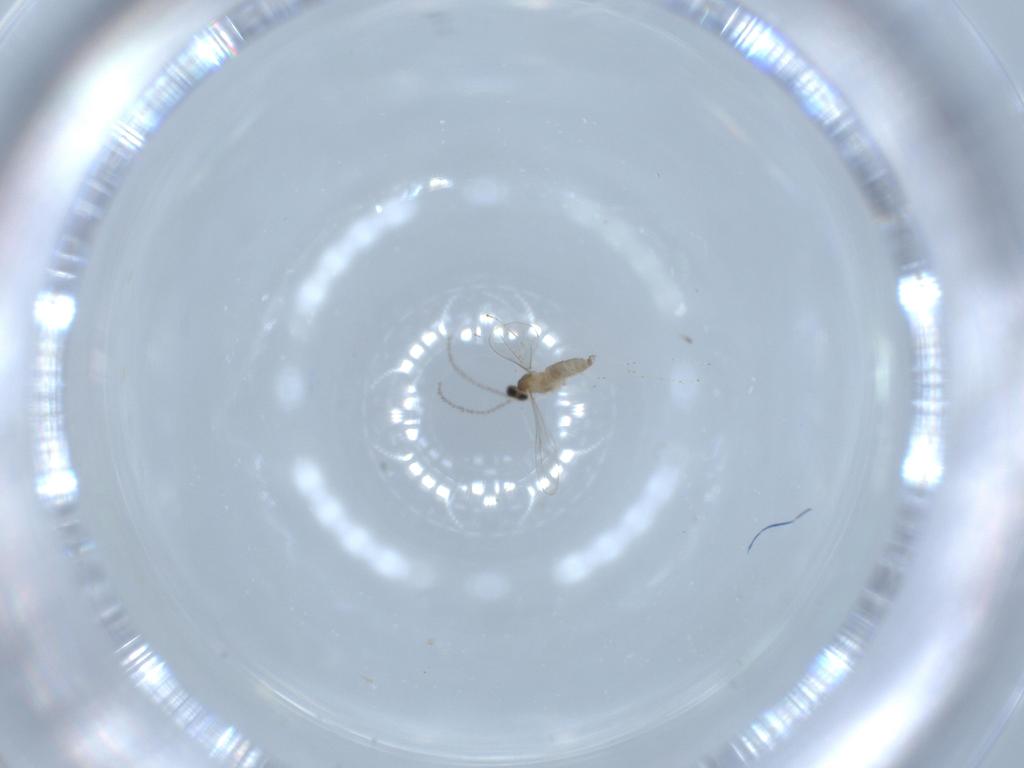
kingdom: Animalia
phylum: Arthropoda
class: Insecta
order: Diptera
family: Cecidomyiidae
